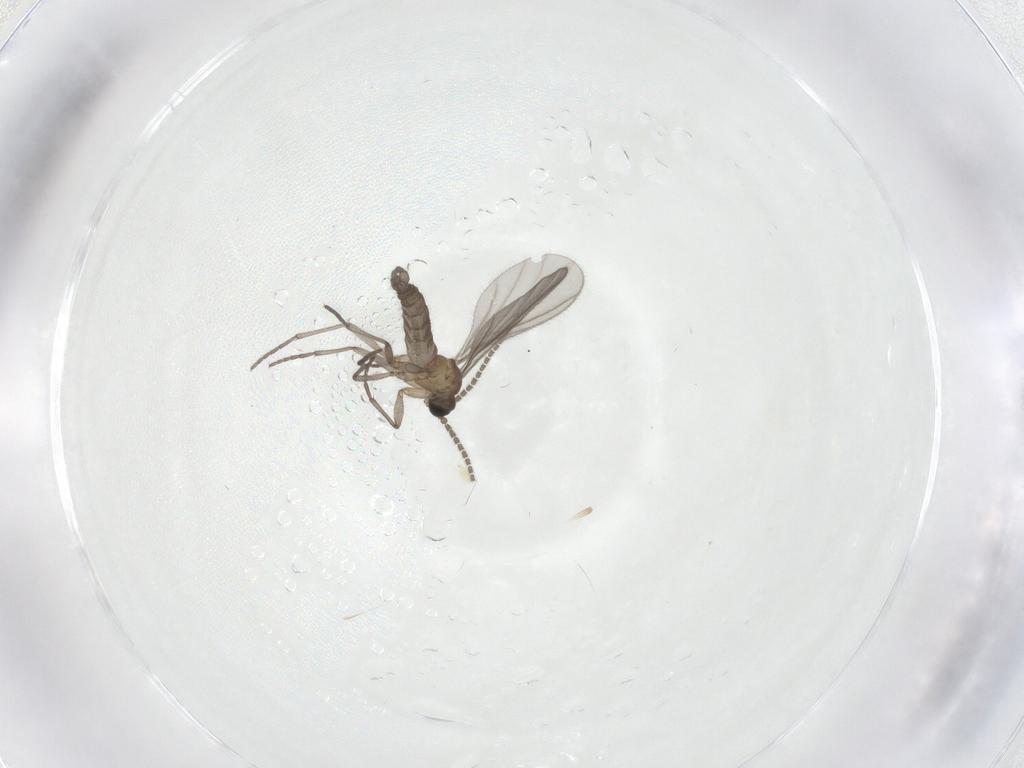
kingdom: Animalia
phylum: Arthropoda
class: Insecta
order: Diptera
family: Sciaridae
